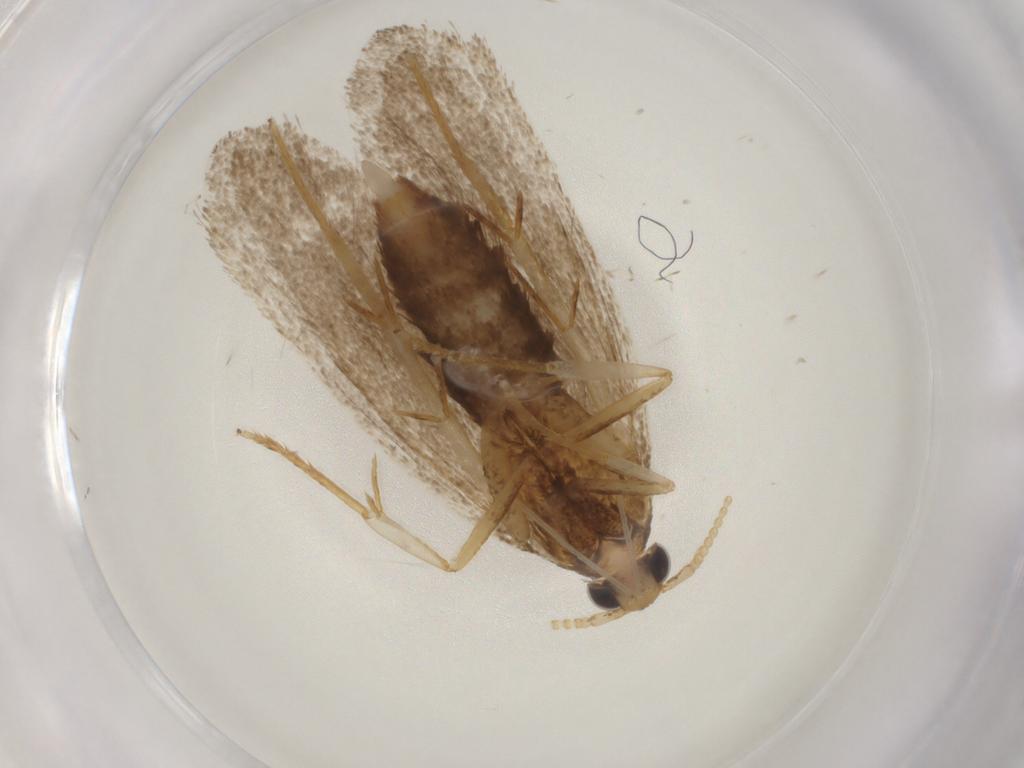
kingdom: Animalia
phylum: Arthropoda
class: Insecta
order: Lepidoptera
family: Lecithoceridae
